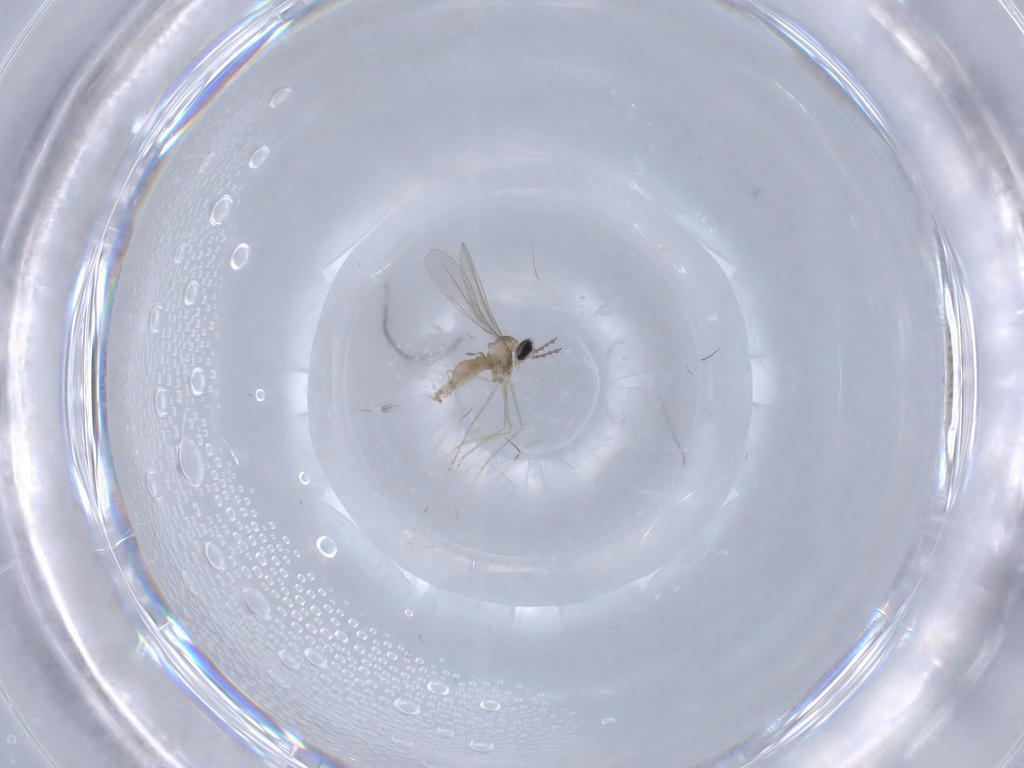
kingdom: Animalia
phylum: Arthropoda
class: Insecta
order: Diptera
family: Cecidomyiidae
